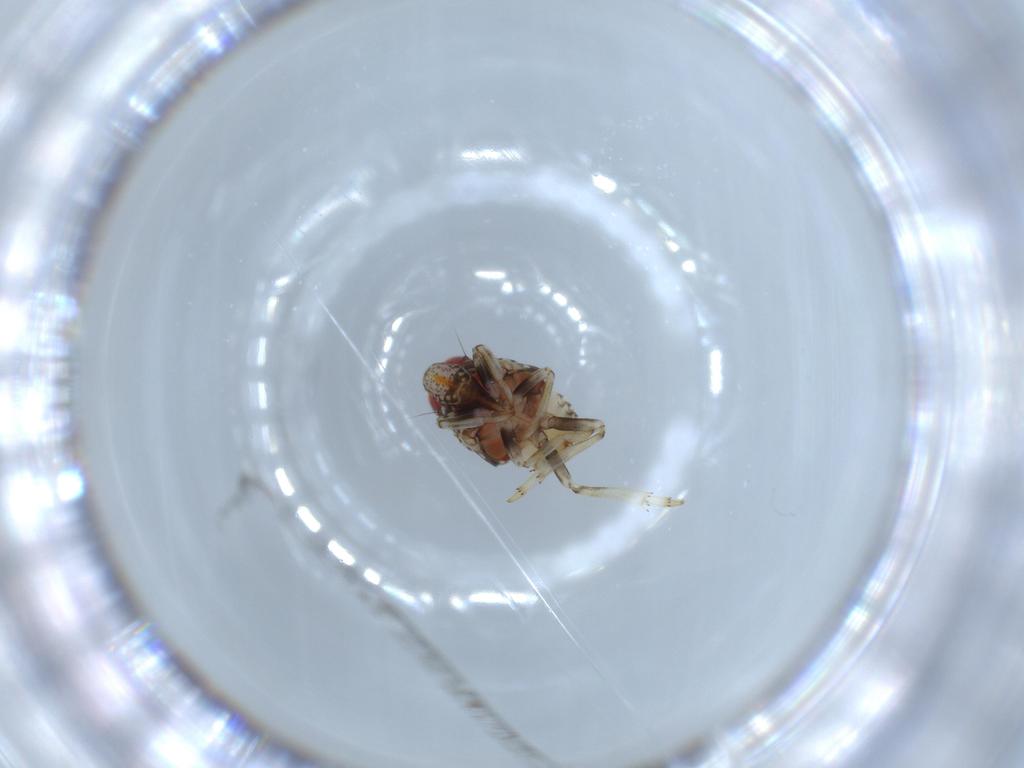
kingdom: Animalia
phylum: Arthropoda
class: Insecta
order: Hemiptera
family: Issidae
